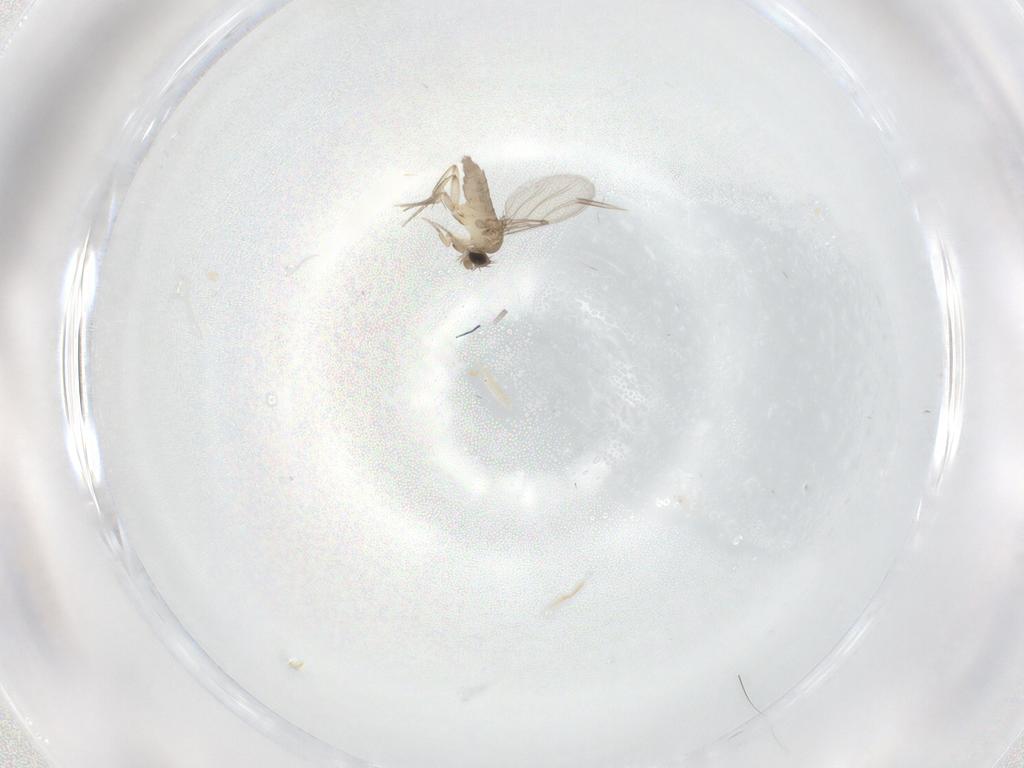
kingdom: Animalia
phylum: Arthropoda
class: Insecta
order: Diptera
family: Phoridae
